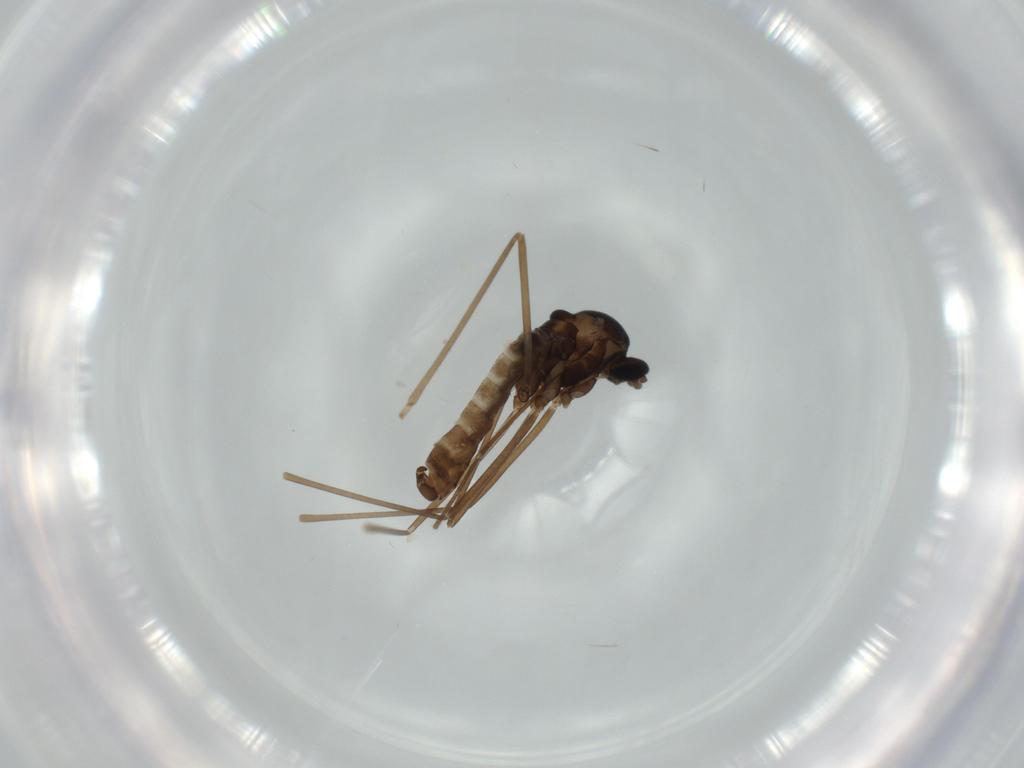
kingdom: Animalia
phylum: Arthropoda
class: Insecta
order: Diptera
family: Cecidomyiidae
